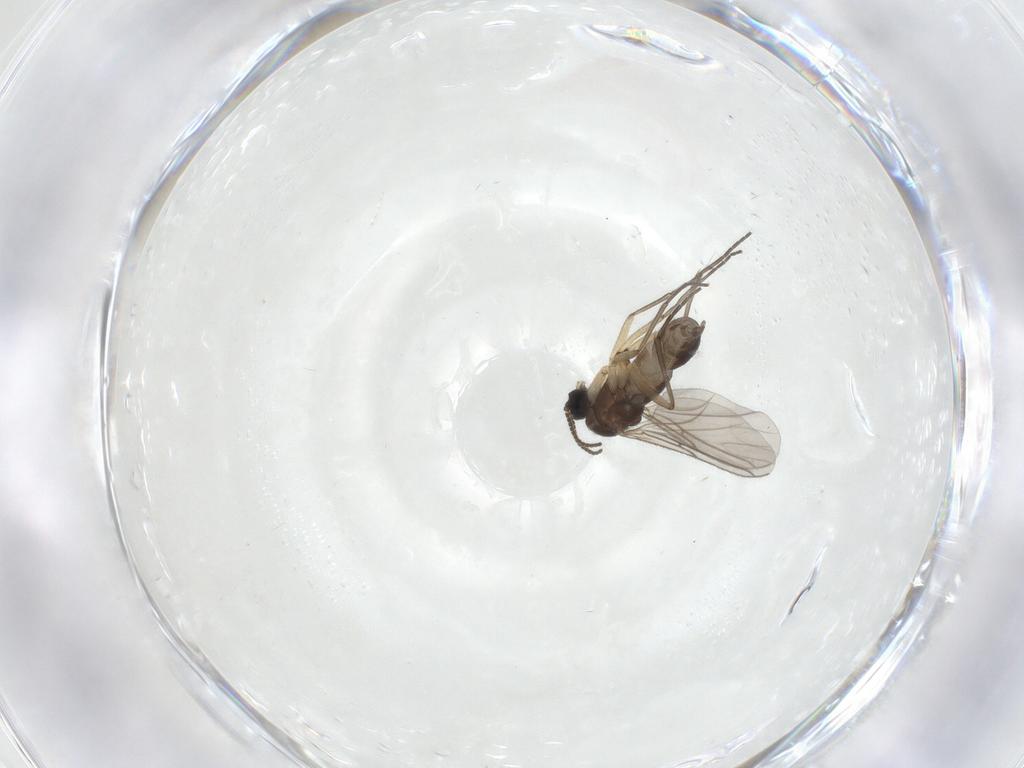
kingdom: Animalia
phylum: Arthropoda
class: Insecta
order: Diptera
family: Sciaridae
